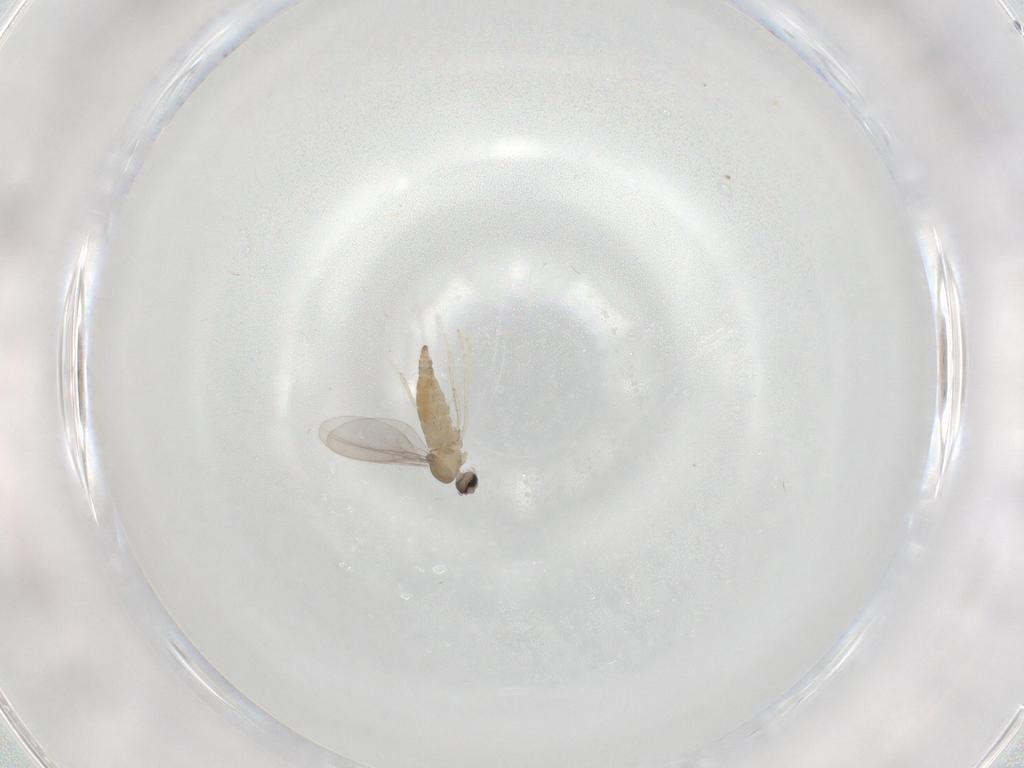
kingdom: Animalia
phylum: Arthropoda
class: Insecta
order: Diptera
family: Cecidomyiidae
